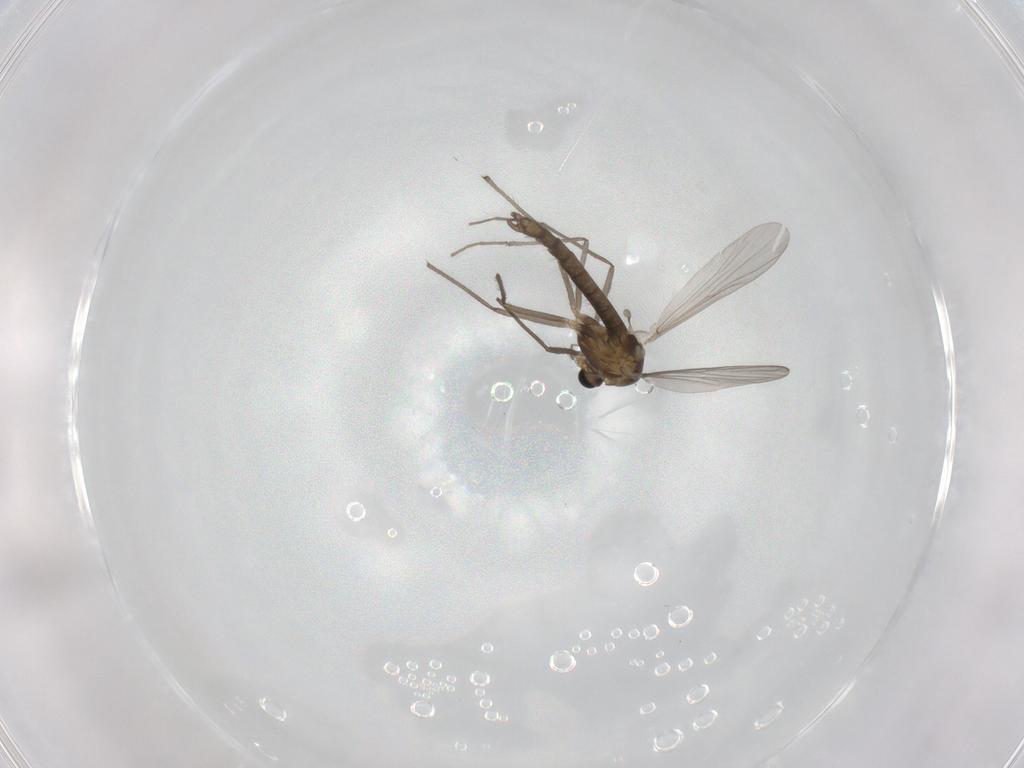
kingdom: Animalia
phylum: Arthropoda
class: Insecta
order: Diptera
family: Chironomidae
